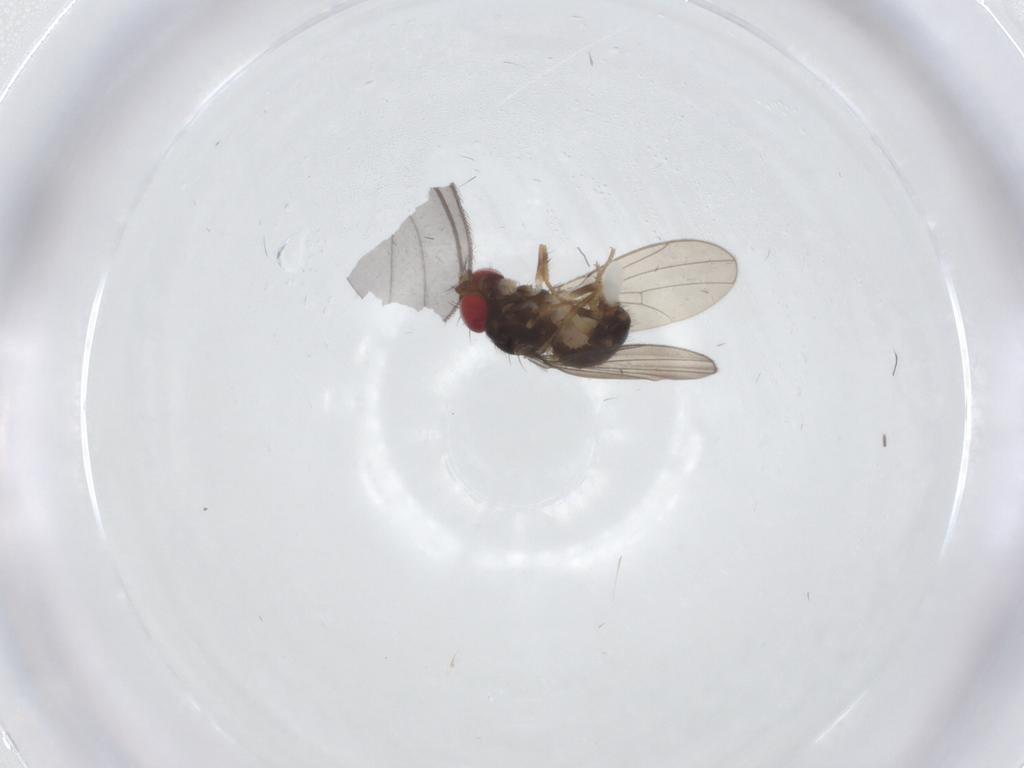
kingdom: Animalia
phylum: Arthropoda
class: Insecta
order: Diptera
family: Drosophilidae
